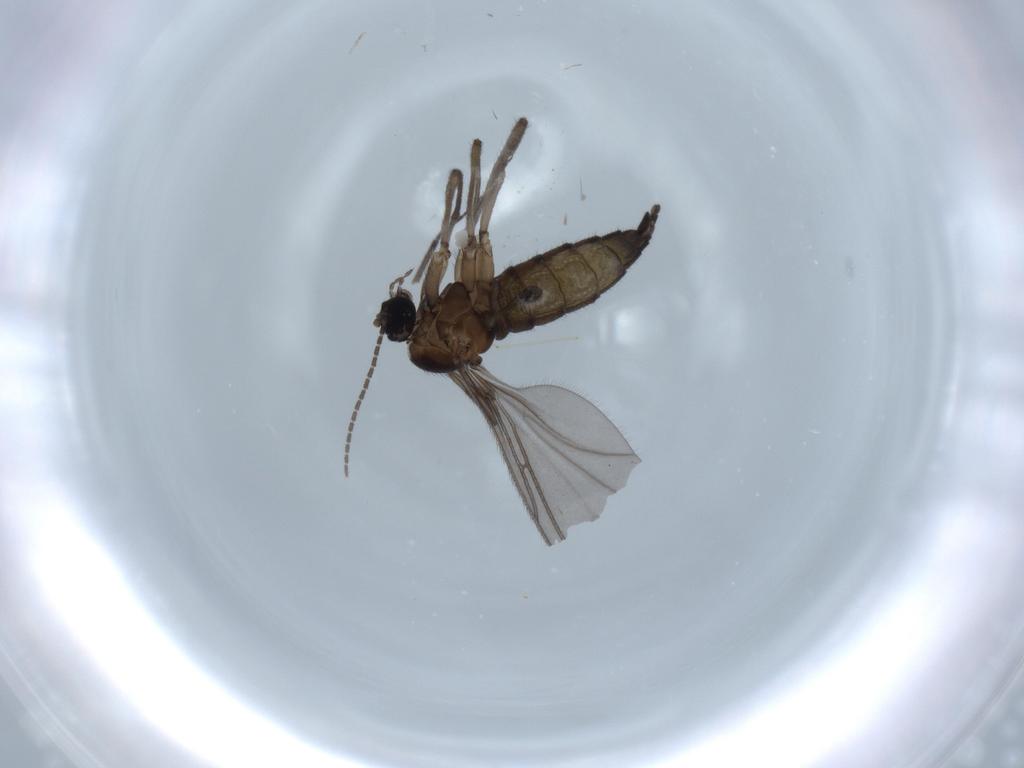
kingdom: Animalia
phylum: Arthropoda
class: Insecta
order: Diptera
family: Sciaridae
